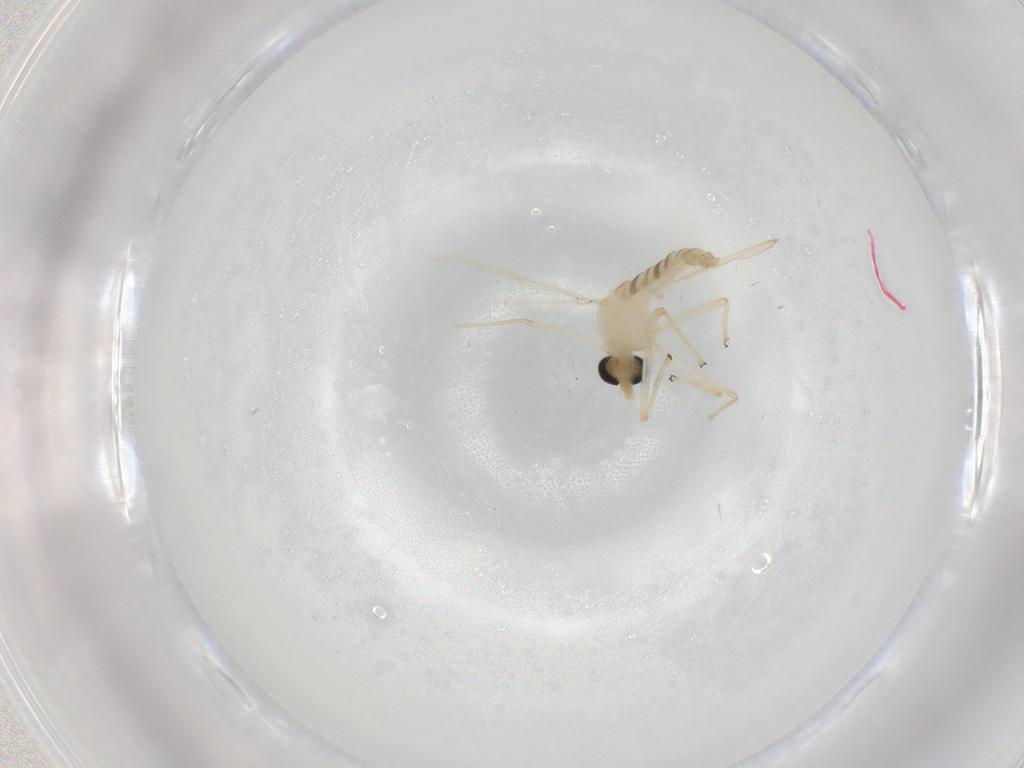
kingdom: Animalia
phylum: Arthropoda
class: Insecta
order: Diptera
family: Chironomidae
